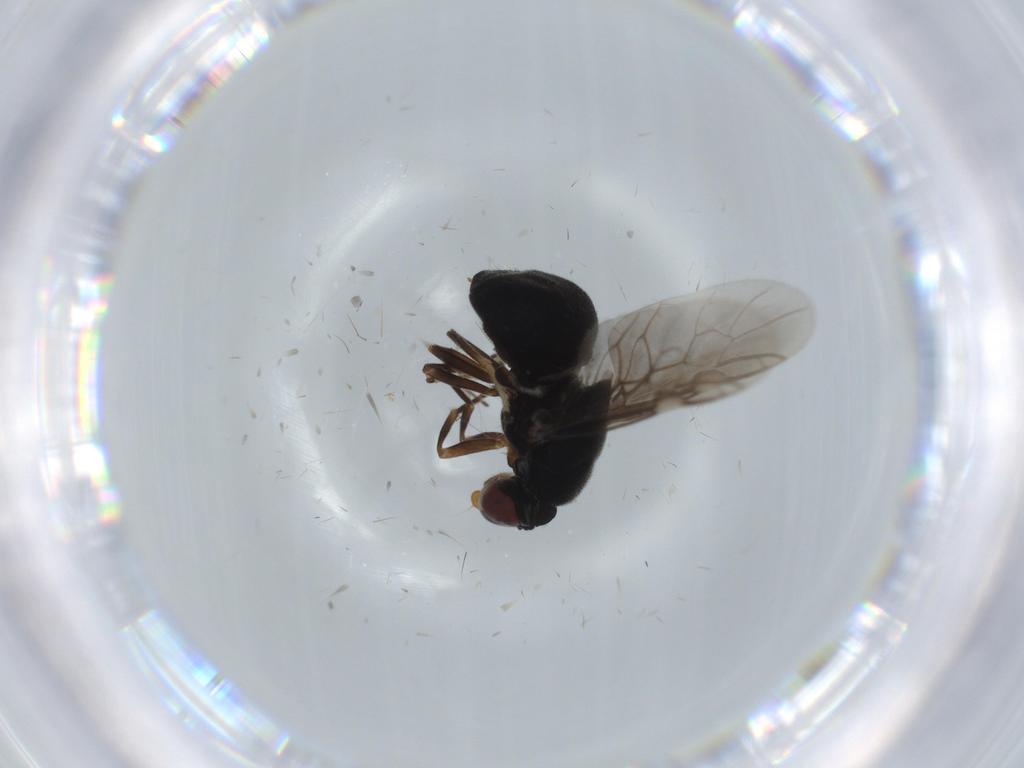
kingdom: Animalia
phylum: Arthropoda
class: Insecta
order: Diptera
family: Stratiomyidae
